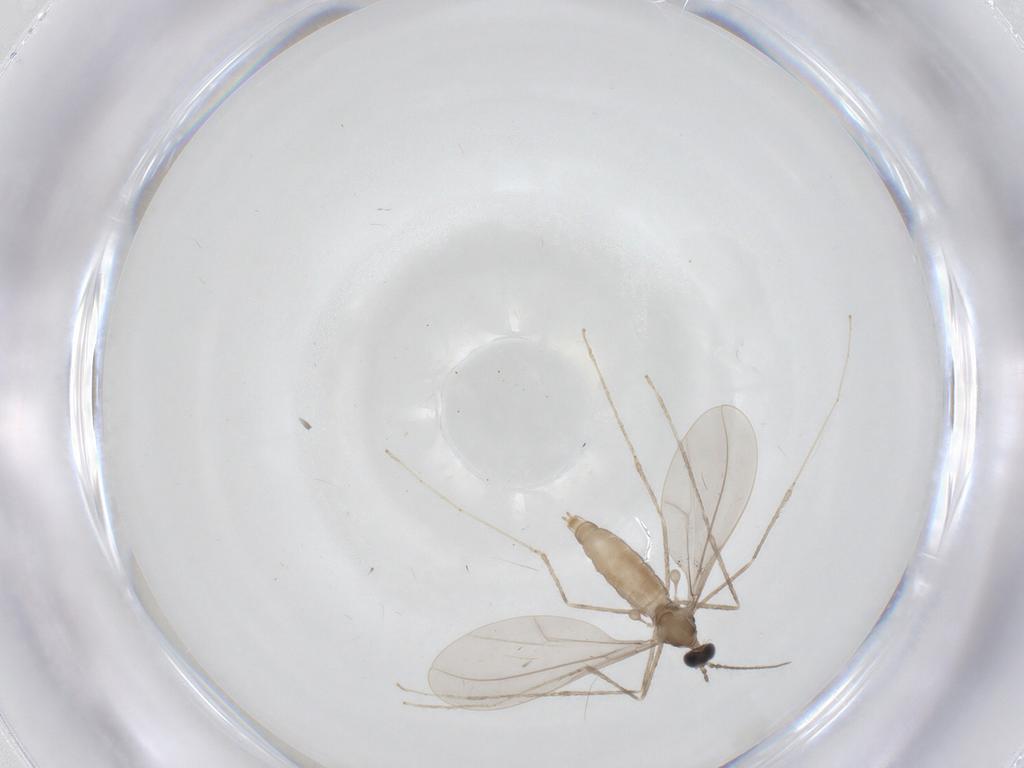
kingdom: Animalia
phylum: Arthropoda
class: Insecta
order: Diptera
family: Cecidomyiidae
